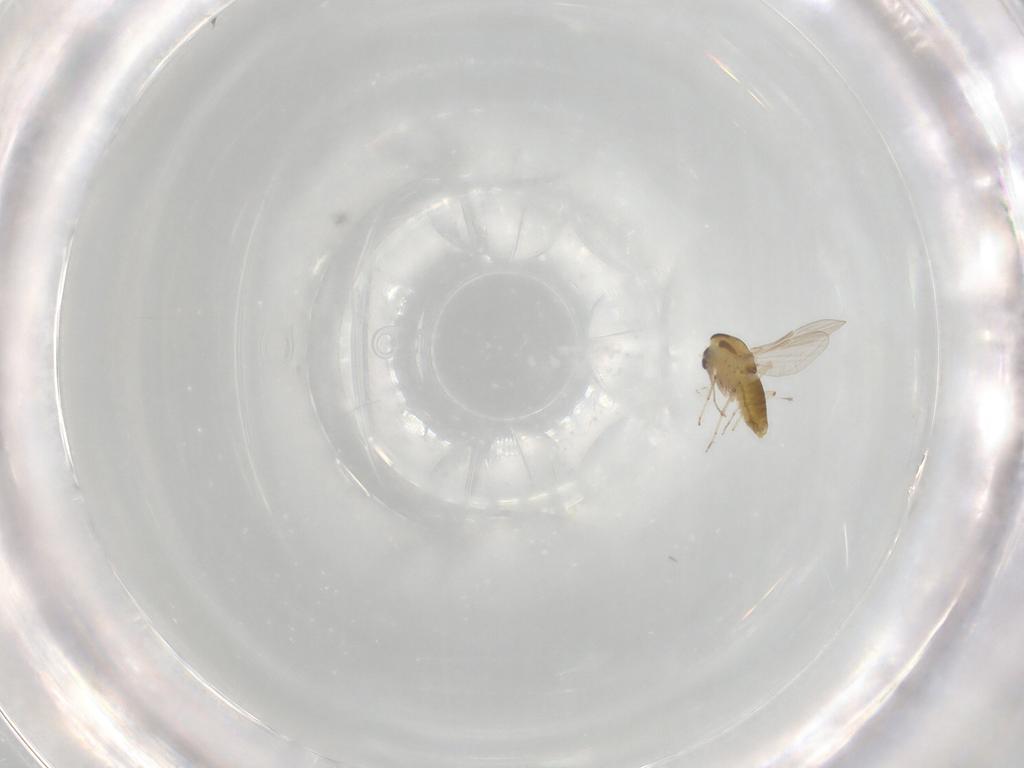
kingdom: Animalia
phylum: Arthropoda
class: Insecta
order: Diptera
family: Chironomidae
